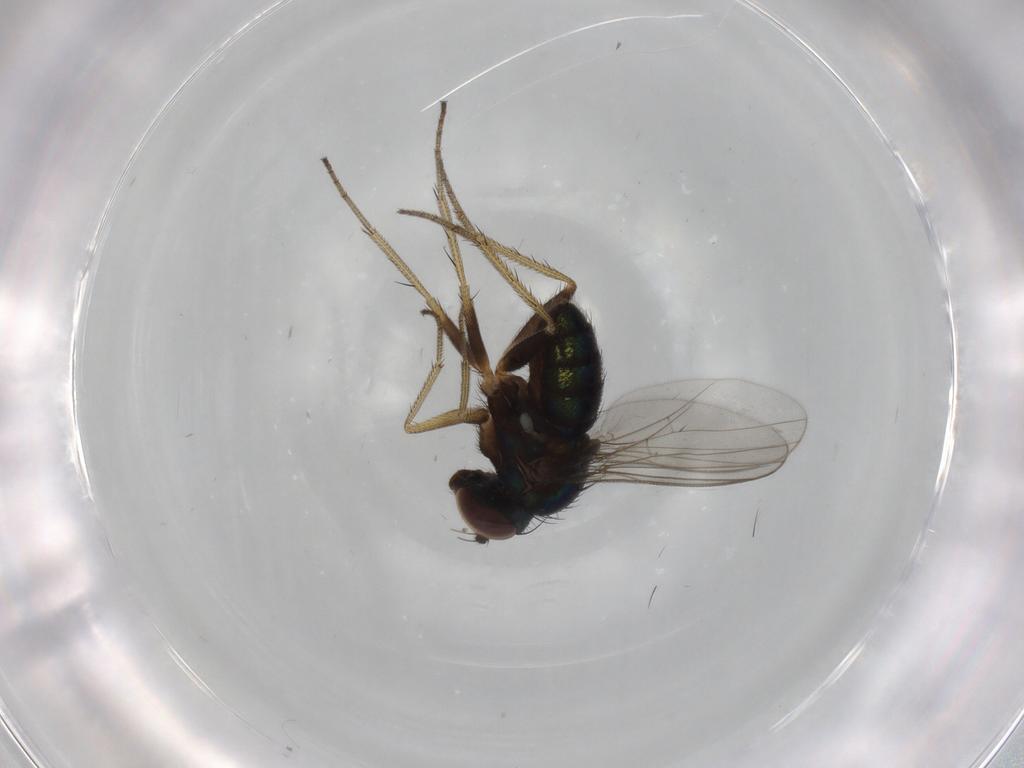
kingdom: Animalia
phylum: Arthropoda
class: Insecta
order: Diptera
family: Dolichopodidae
